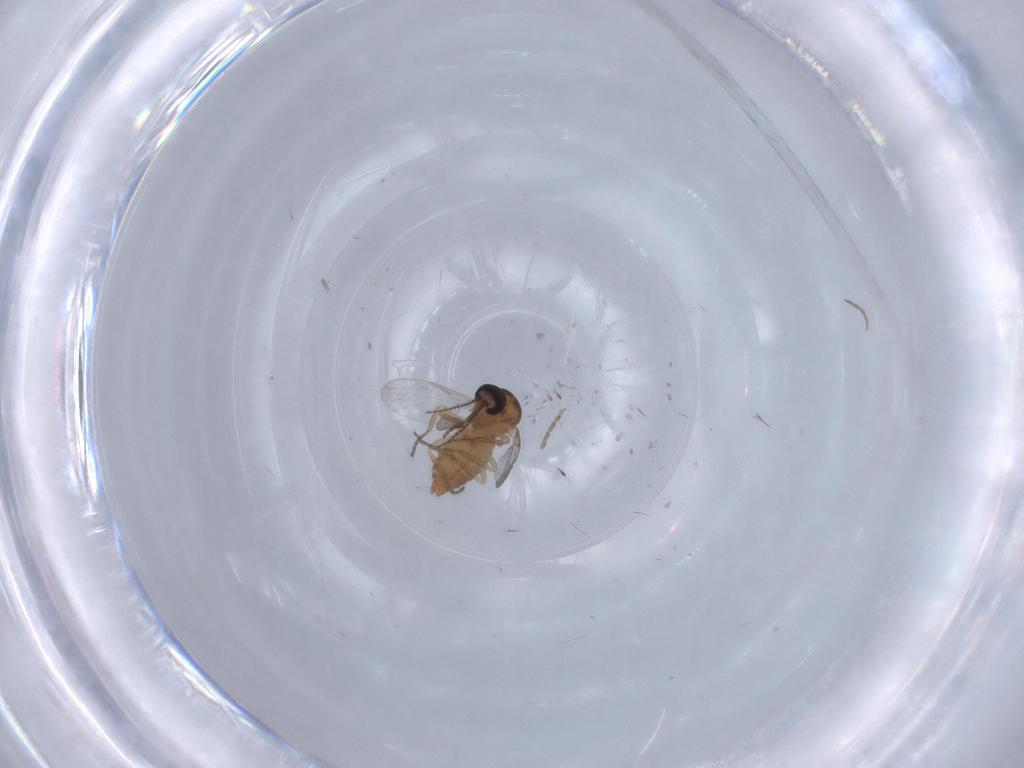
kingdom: Animalia
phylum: Arthropoda
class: Insecta
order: Diptera
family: Ceratopogonidae
